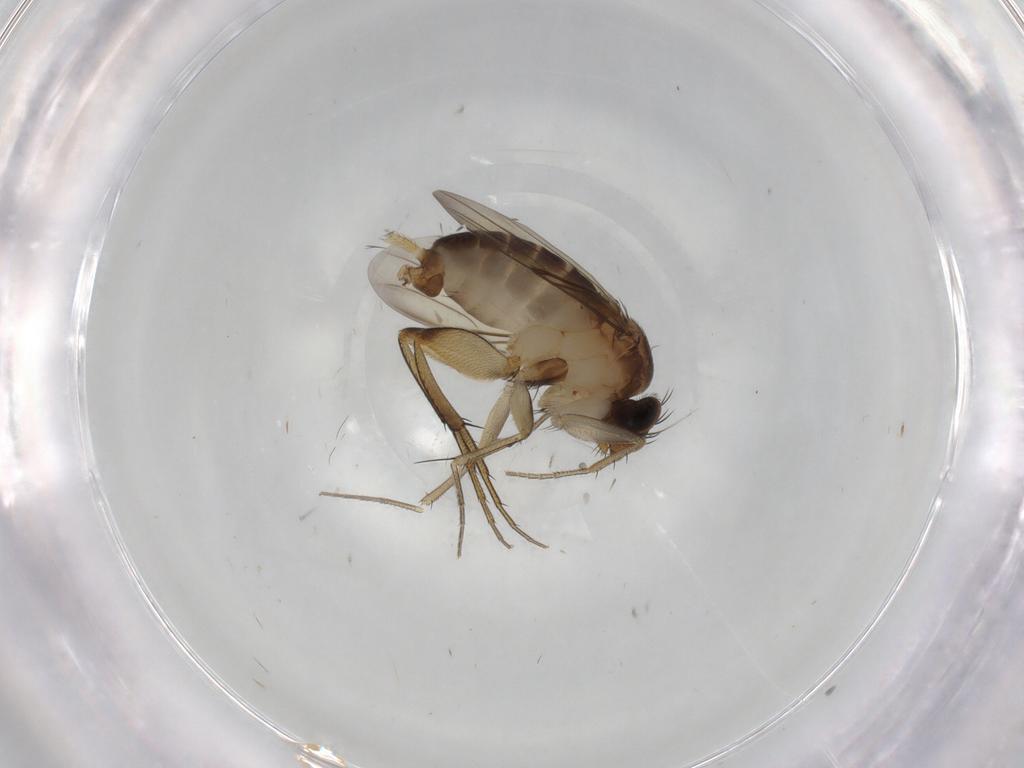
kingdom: Animalia
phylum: Arthropoda
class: Insecta
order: Diptera
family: Phoridae
